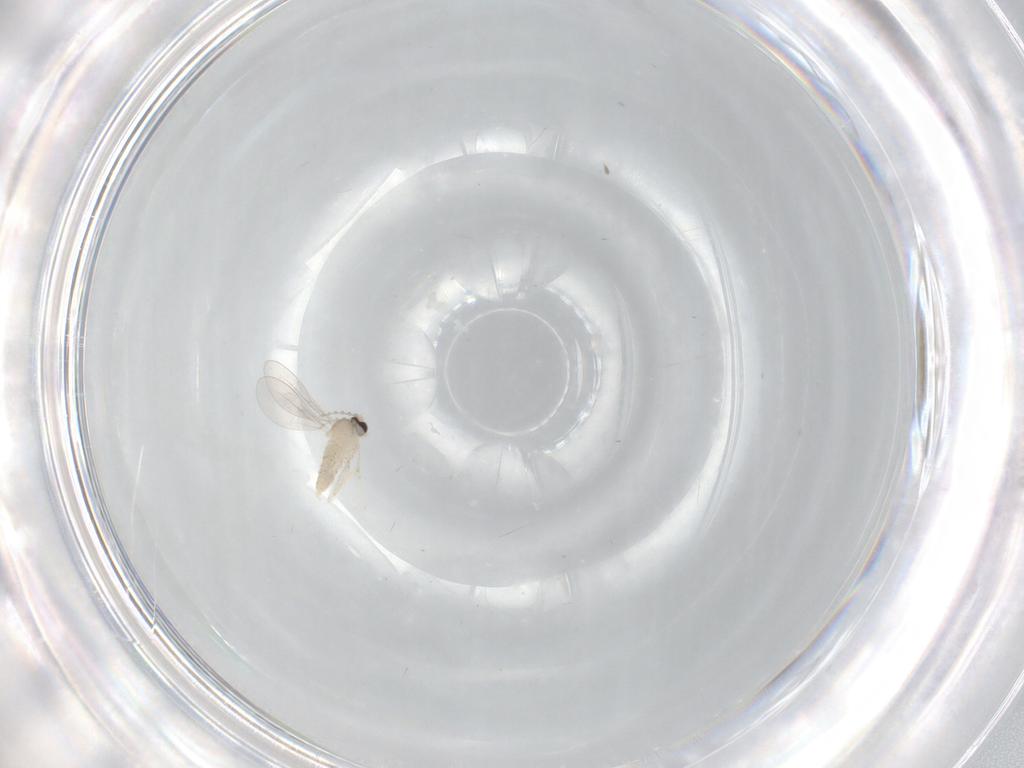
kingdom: Animalia
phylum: Arthropoda
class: Insecta
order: Diptera
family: Cecidomyiidae
